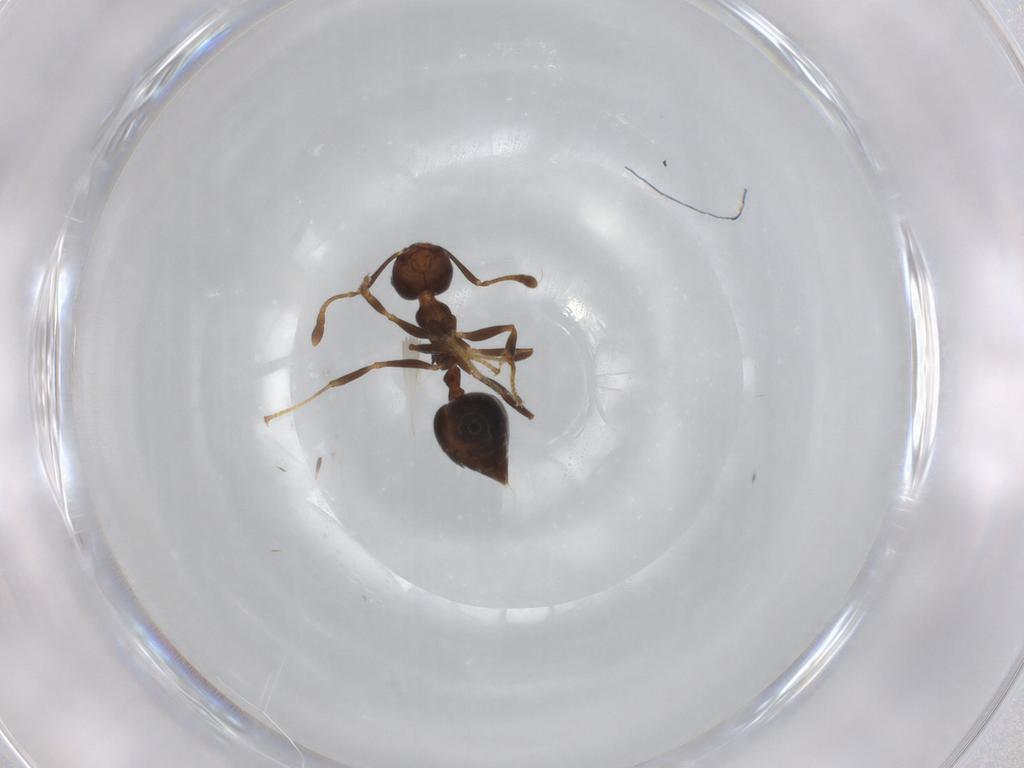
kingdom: Animalia
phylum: Arthropoda
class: Insecta
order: Hymenoptera
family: Formicidae
